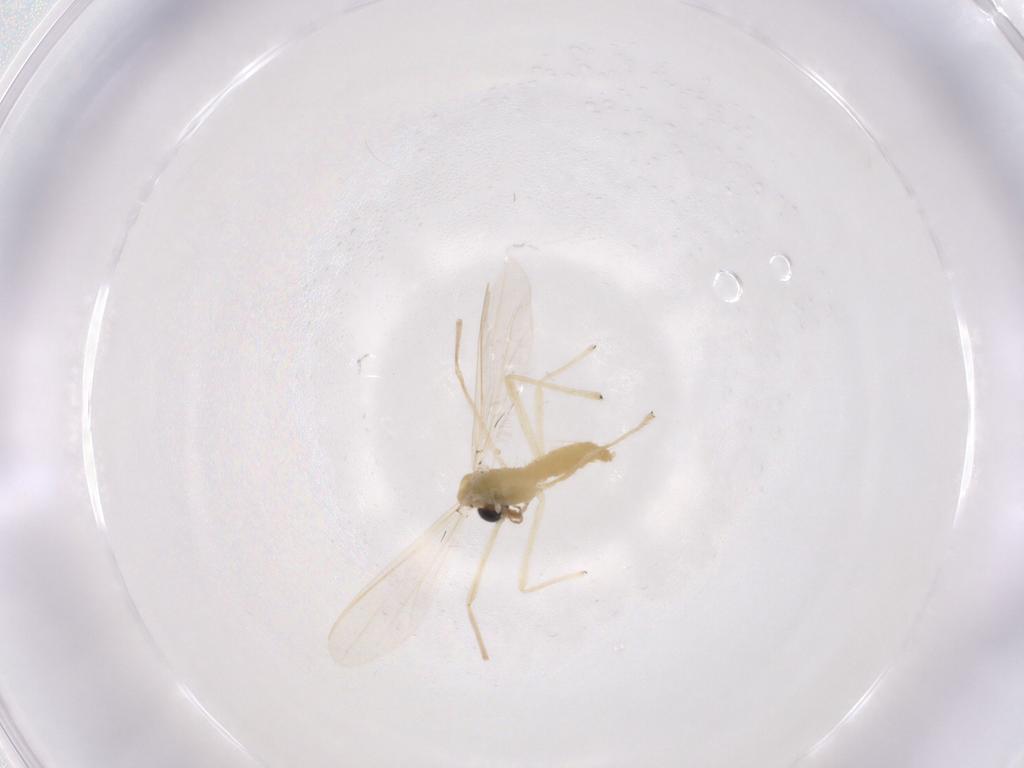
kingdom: Animalia
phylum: Arthropoda
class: Insecta
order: Diptera
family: Chironomidae
